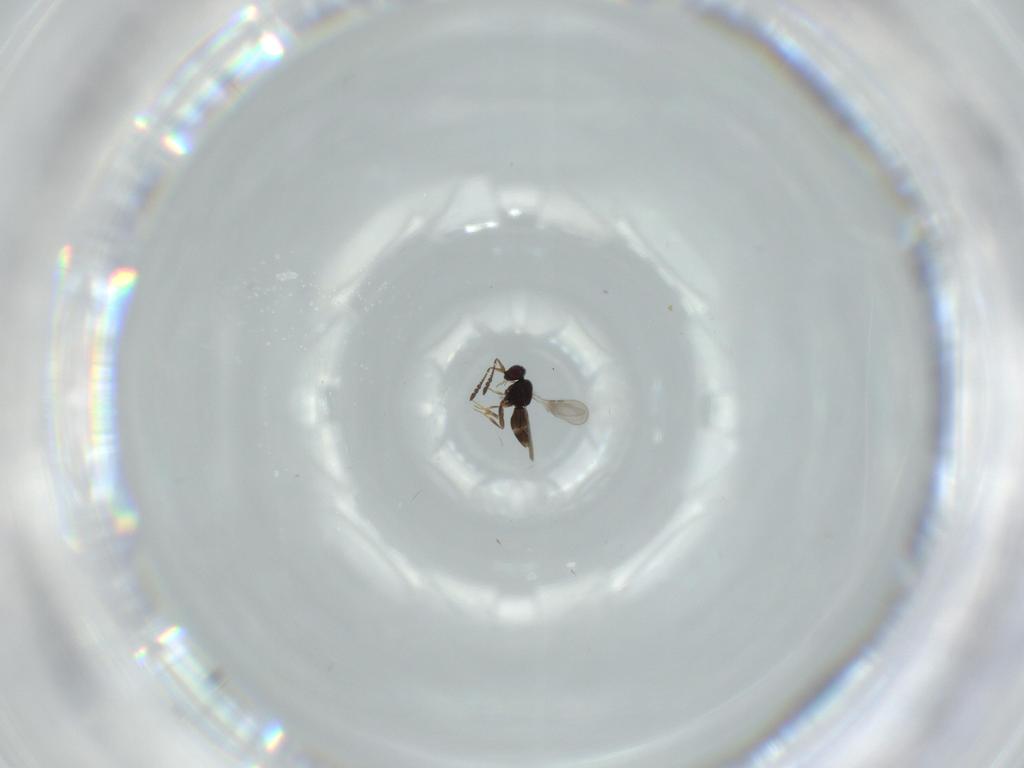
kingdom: Animalia
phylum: Arthropoda
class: Insecta
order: Hymenoptera
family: Ceraphronidae
